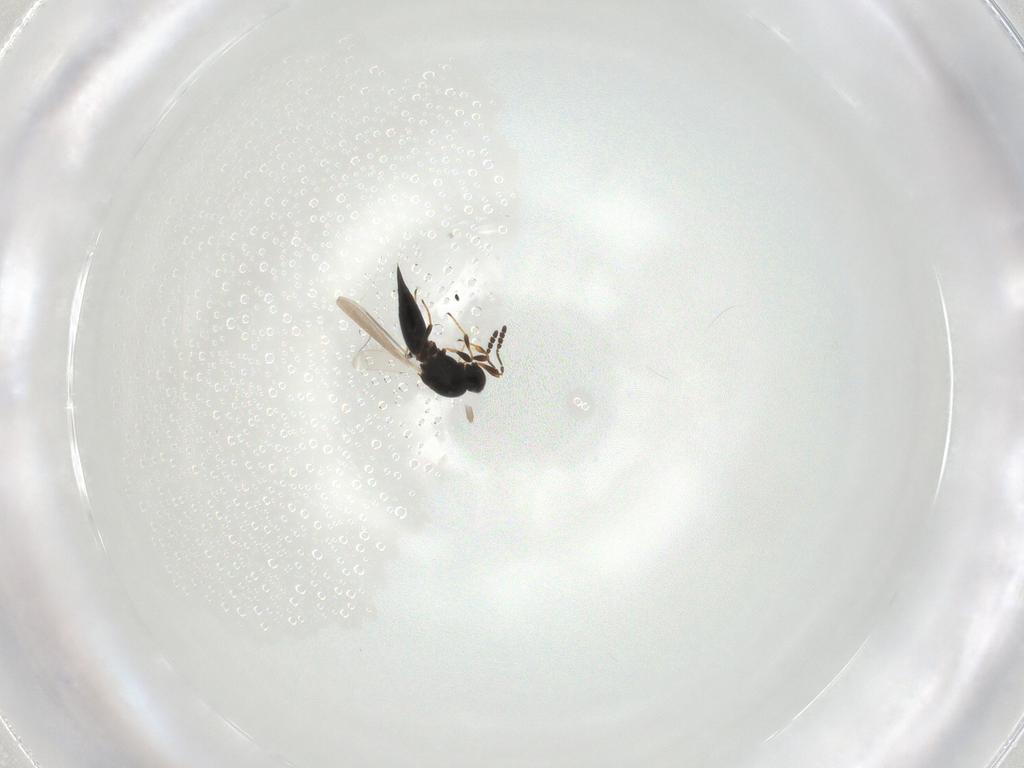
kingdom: Animalia
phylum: Arthropoda
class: Insecta
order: Hymenoptera
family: Platygastridae
